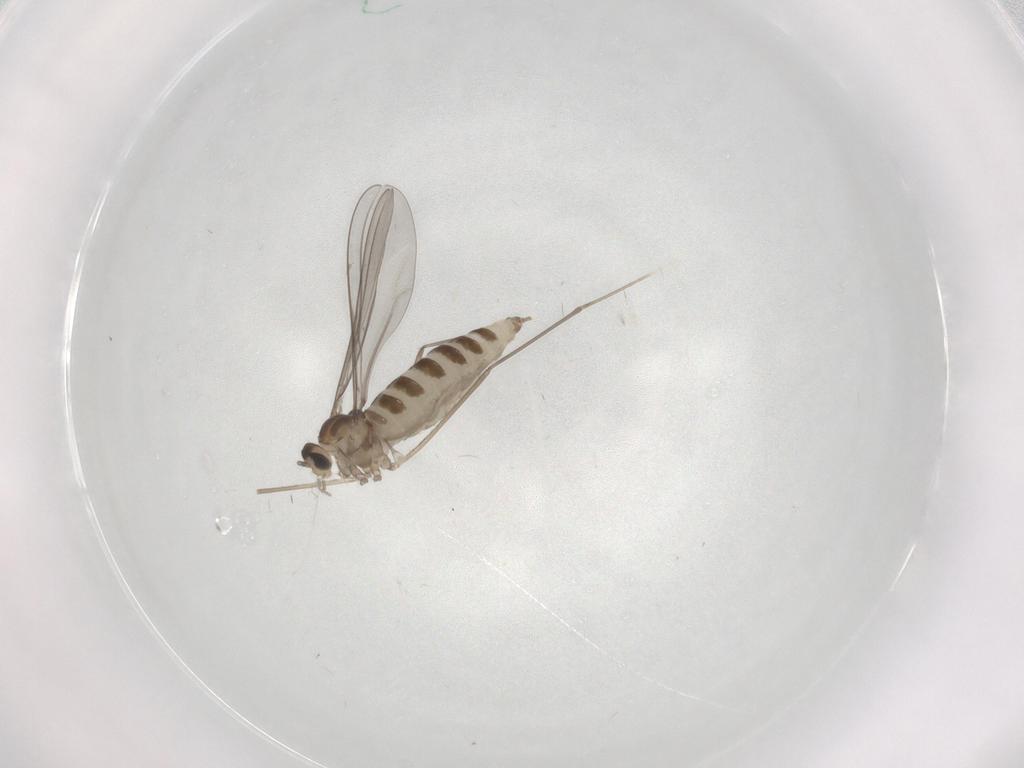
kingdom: Animalia
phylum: Arthropoda
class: Insecta
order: Diptera
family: Cecidomyiidae
